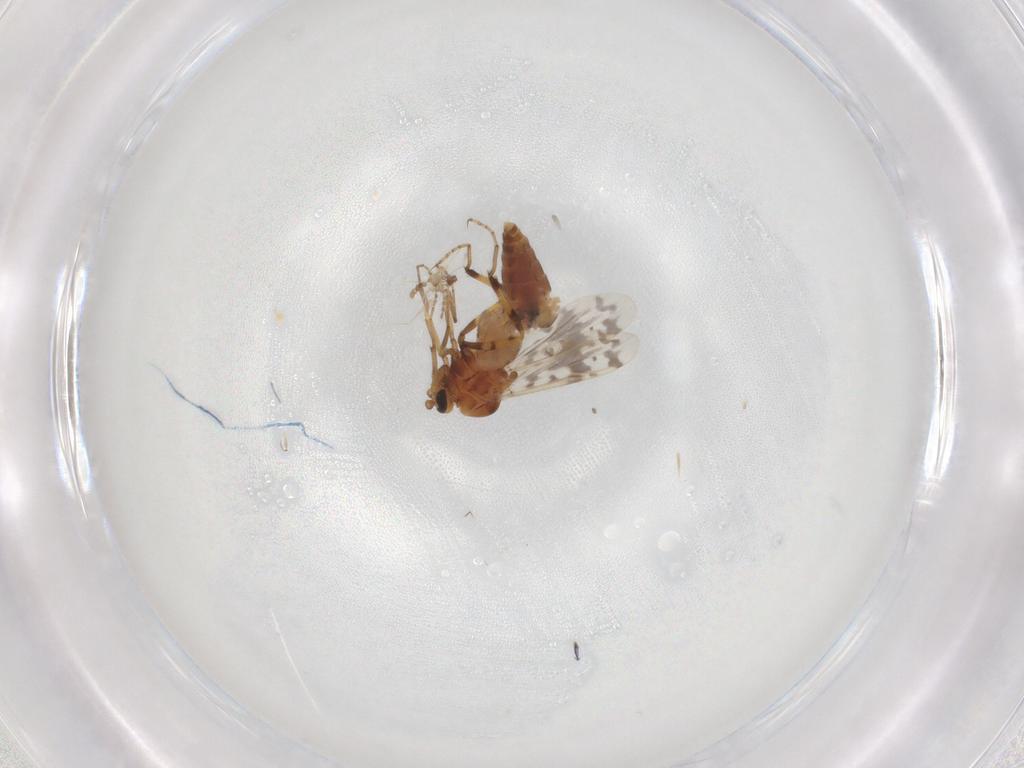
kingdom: Animalia
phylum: Arthropoda
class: Insecta
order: Diptera
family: Ceratopogonidae
